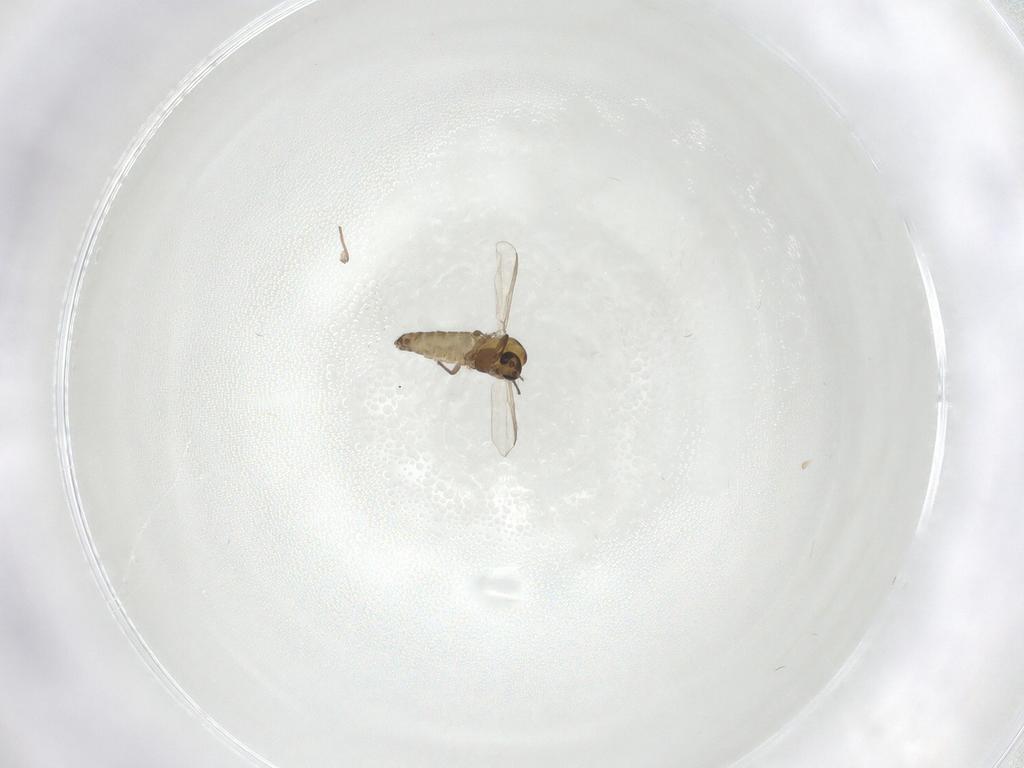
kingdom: Animalia
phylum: Arthropoda
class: Insecta
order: Diptera
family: Chironomidae
